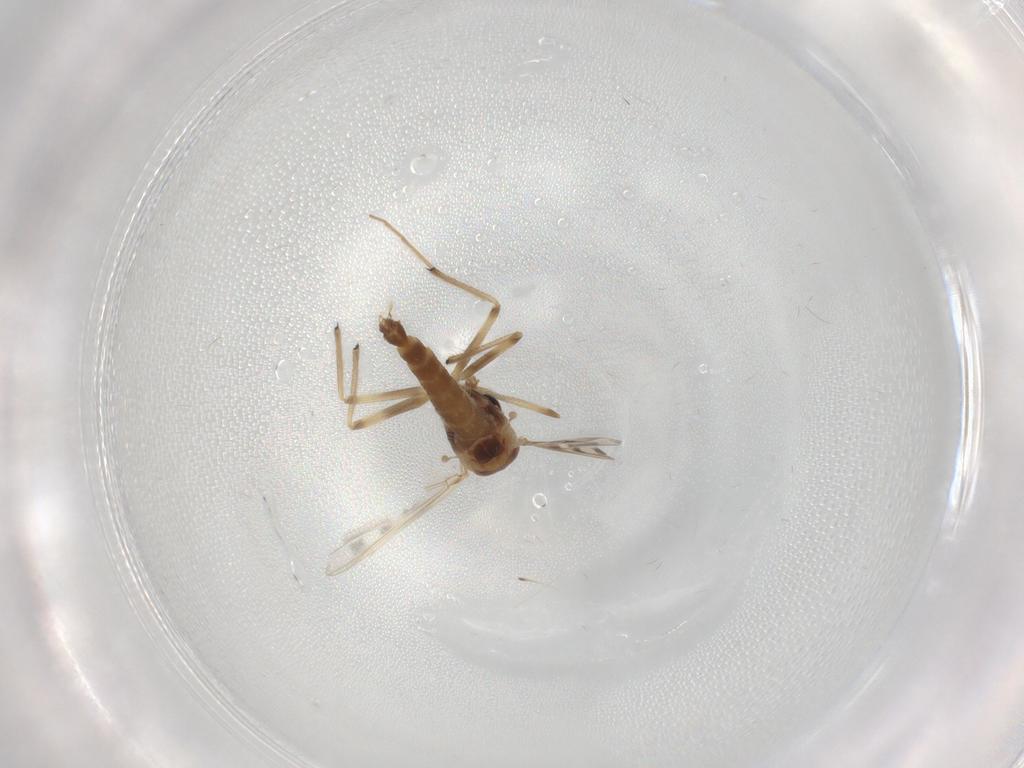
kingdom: Animalia
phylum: Arthropoda
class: Insecta
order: Diptera
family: Chironomidae
